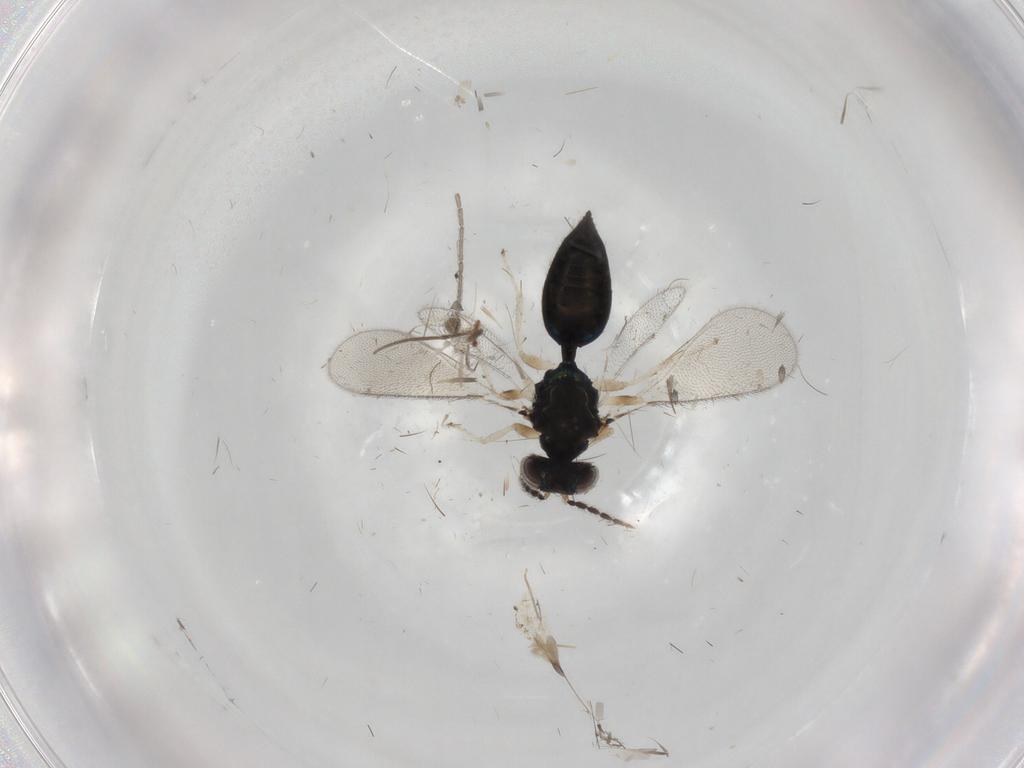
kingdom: Animalia
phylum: Arthropoda
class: Insecta
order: Hymenoptera
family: Eulophidae
